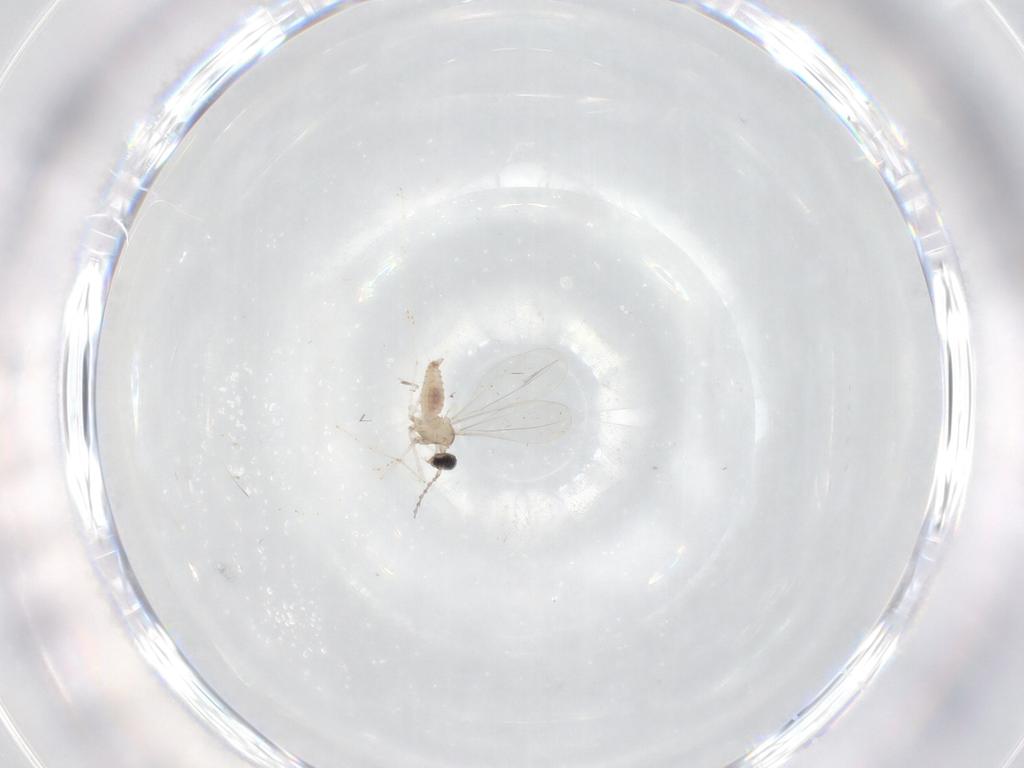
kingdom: Animalia
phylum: Arthropoda
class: Insecta
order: Diptera
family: Cecidomyiidae
